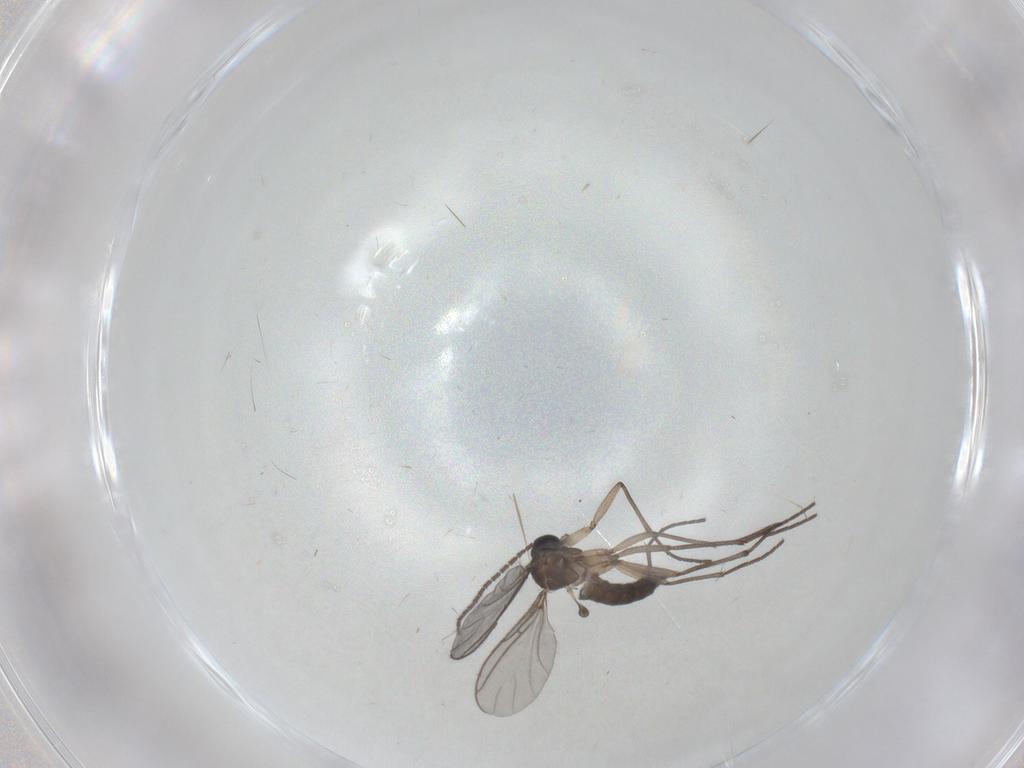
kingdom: Animalia
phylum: Arthropoda
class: Insecta
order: Diptera
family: Sciaridae
